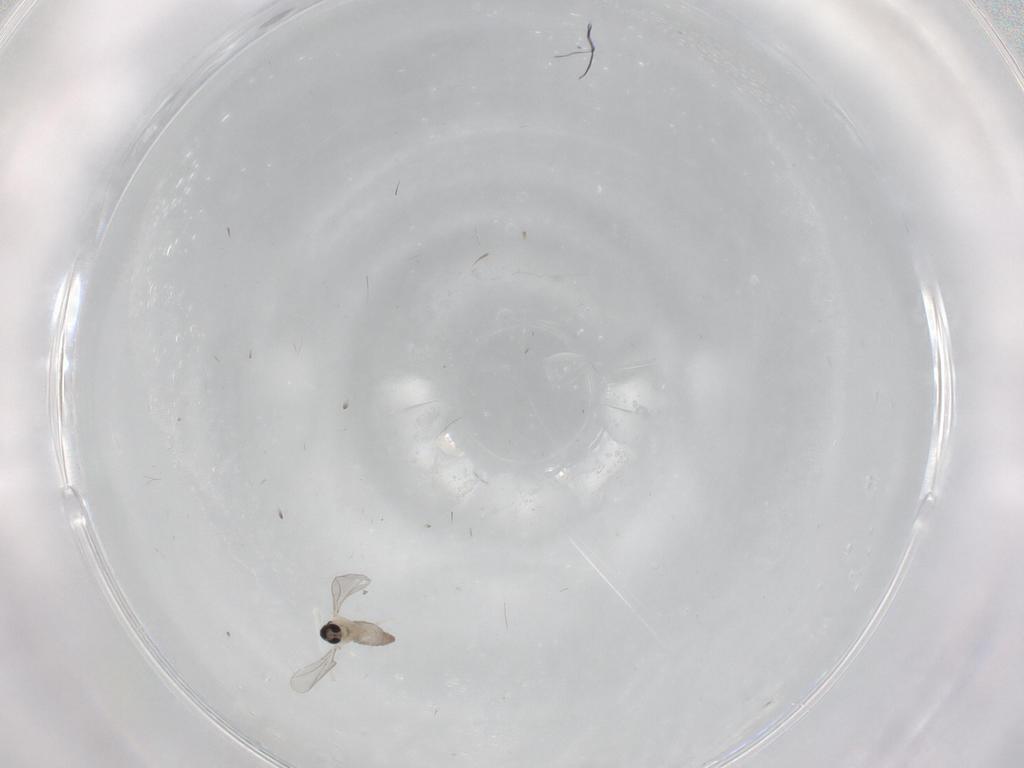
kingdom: Animalia
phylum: Arthropoda
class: Insecta
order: Diptera
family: Cecidomyiidae
